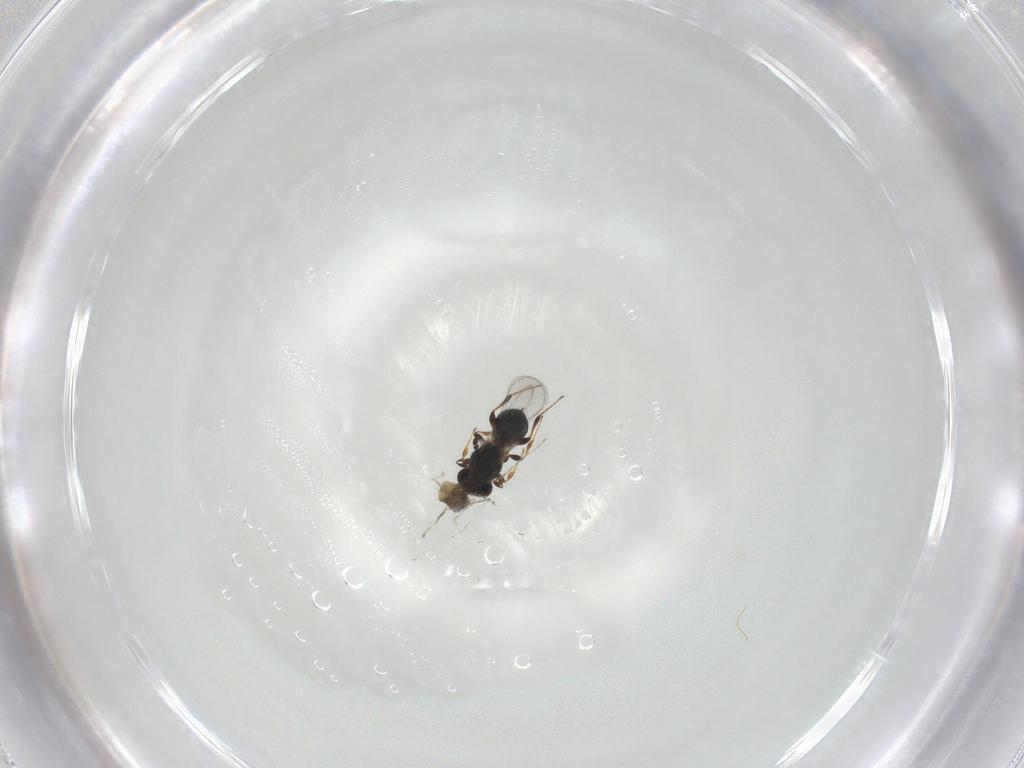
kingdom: Animalia
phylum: Arthropoda
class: Insecta
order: Hymenoptera
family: Platygastridae
